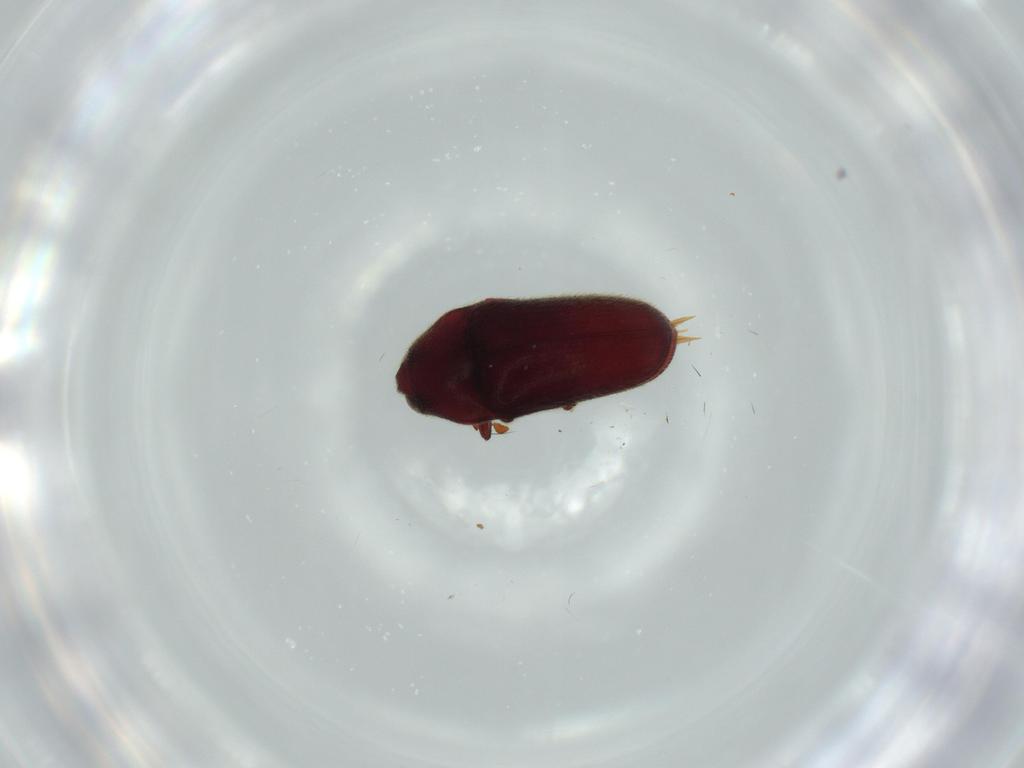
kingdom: Animalia
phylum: Arthropoda
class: Insecta
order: Coleoptera
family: Throscidae
